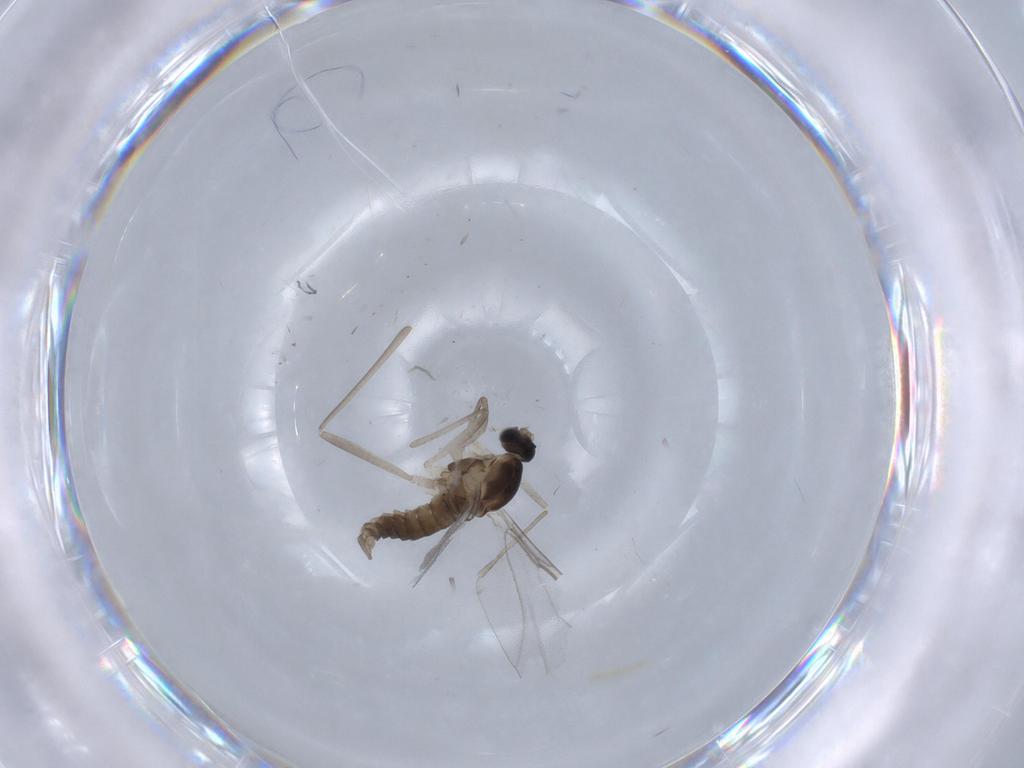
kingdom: Animalia
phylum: Arthropoda
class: Insecta
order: Diptera
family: Cecidomyiidae
